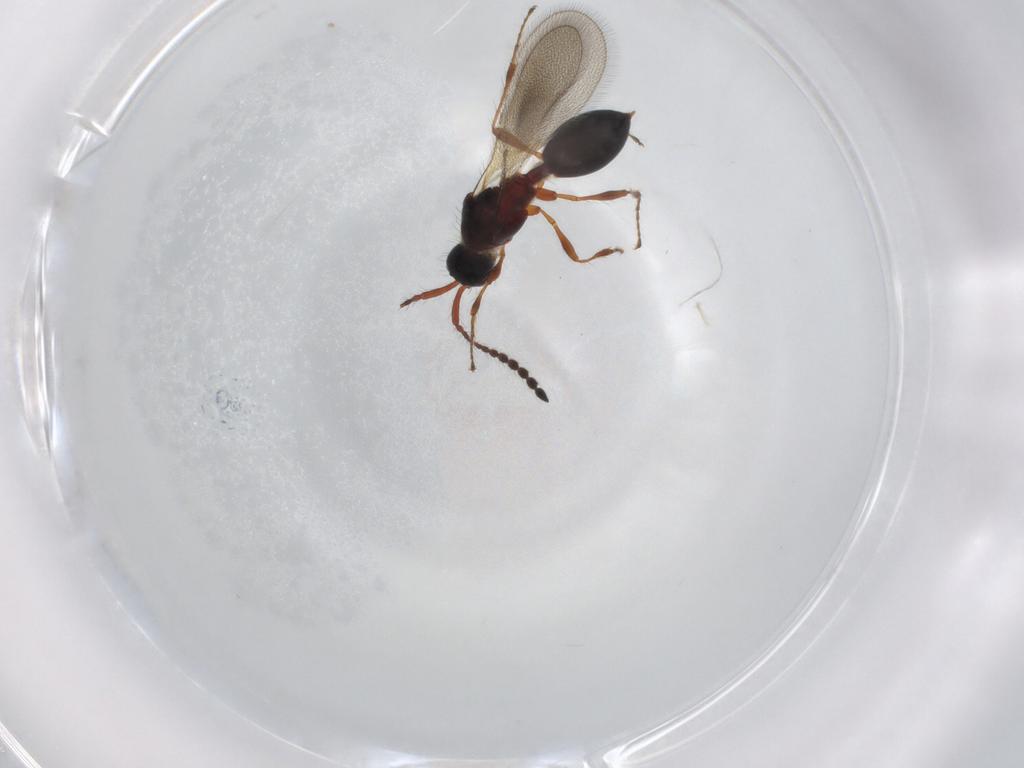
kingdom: Animalia
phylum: Arthropoda
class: Insecta
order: Hymenoptera
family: Diapriidae
